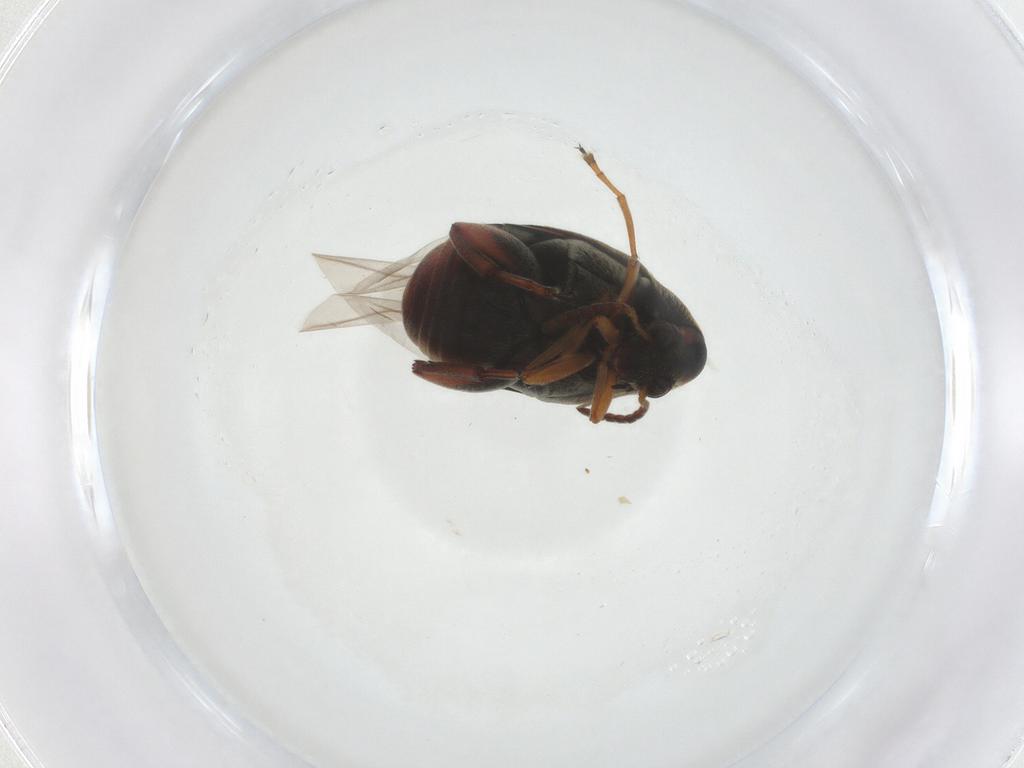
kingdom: Animalia
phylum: Arthropoda
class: Insecta
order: Coleoptera
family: Chrysomelidae
